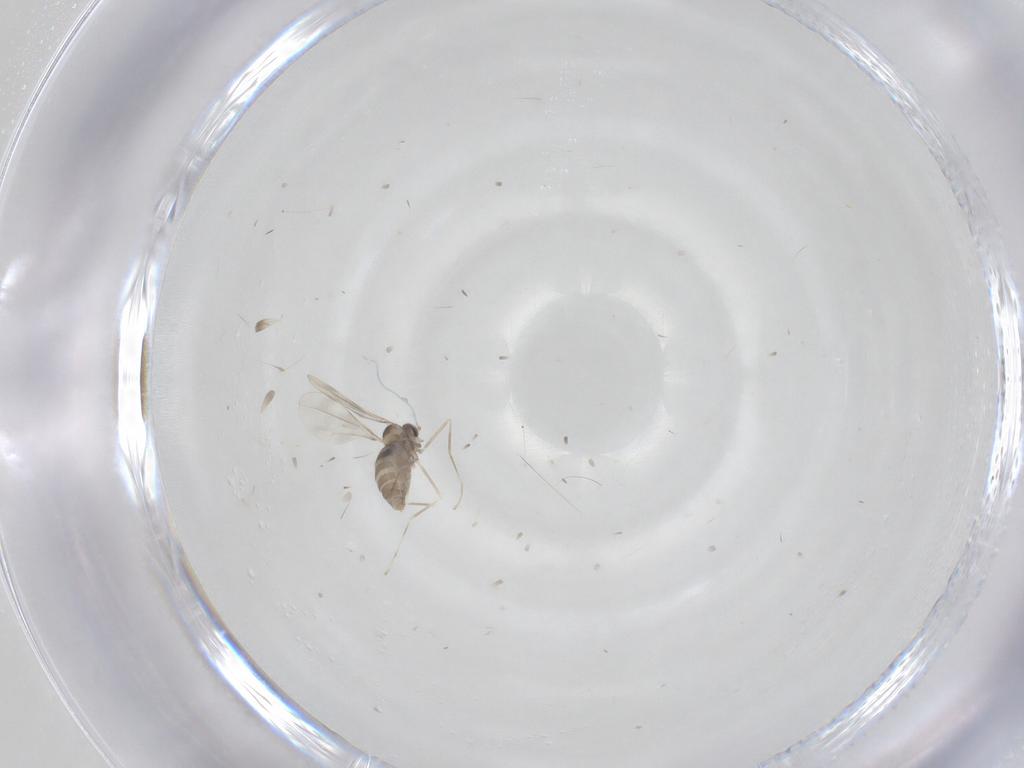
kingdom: Animalia
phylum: Arthropoda
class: Insecta
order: Diptera
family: Cecidomyiidae
